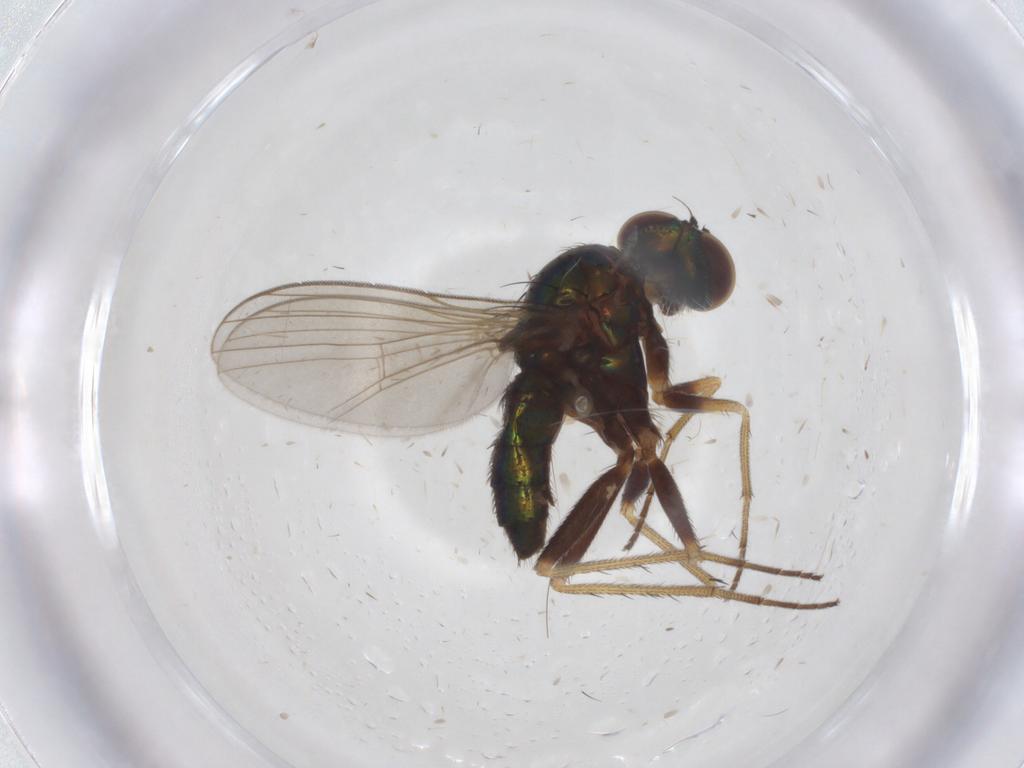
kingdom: Animalia
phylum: Arthropoda
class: Insecta
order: Diptera
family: Dolichopodidae
